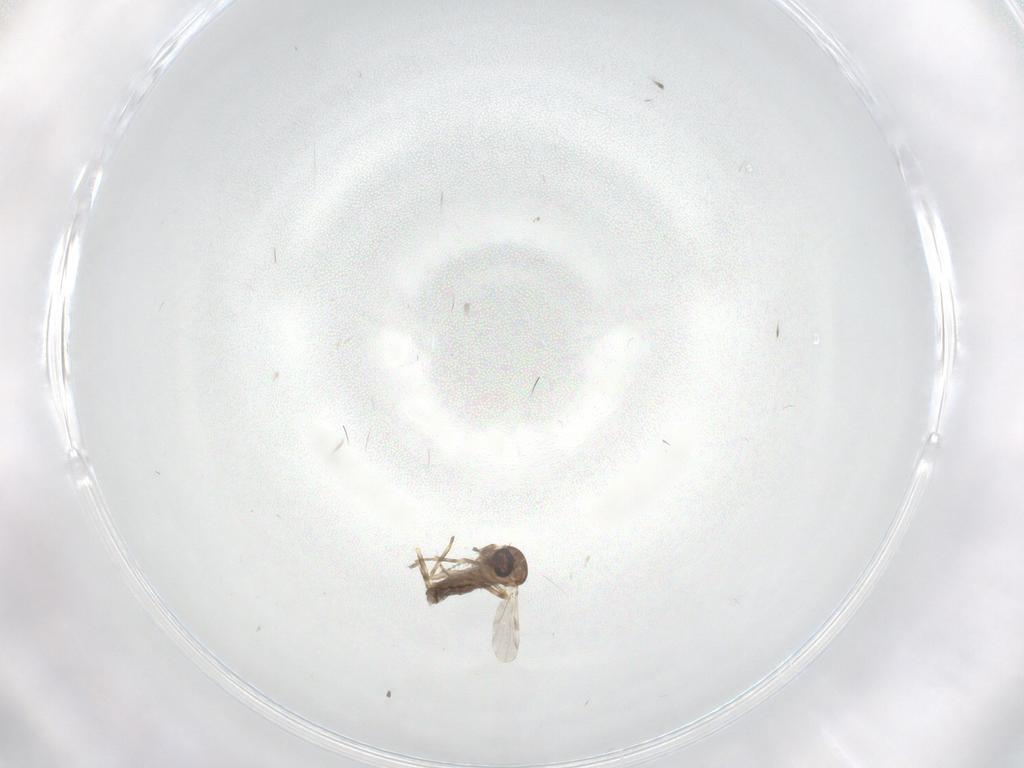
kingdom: Animalia
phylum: Arthropoda
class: Insecta
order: Diptera
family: Ceratopogonidae
